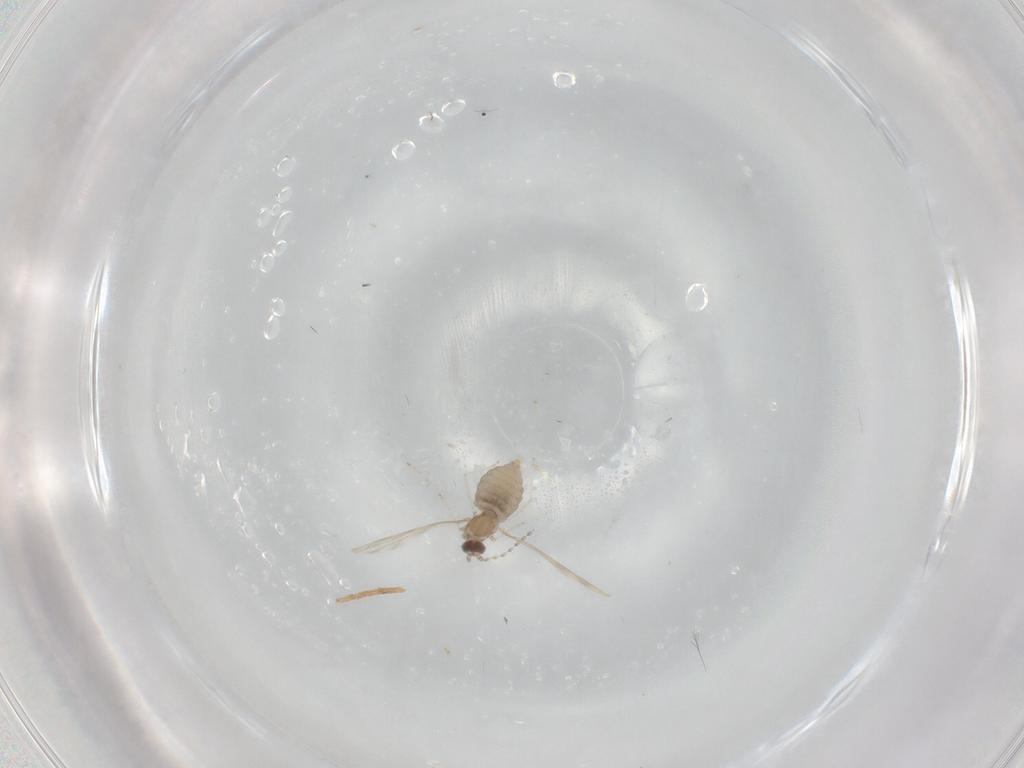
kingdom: Animalia
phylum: Arthropoda
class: Insecta
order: Diptera
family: Cecidomyiidae
